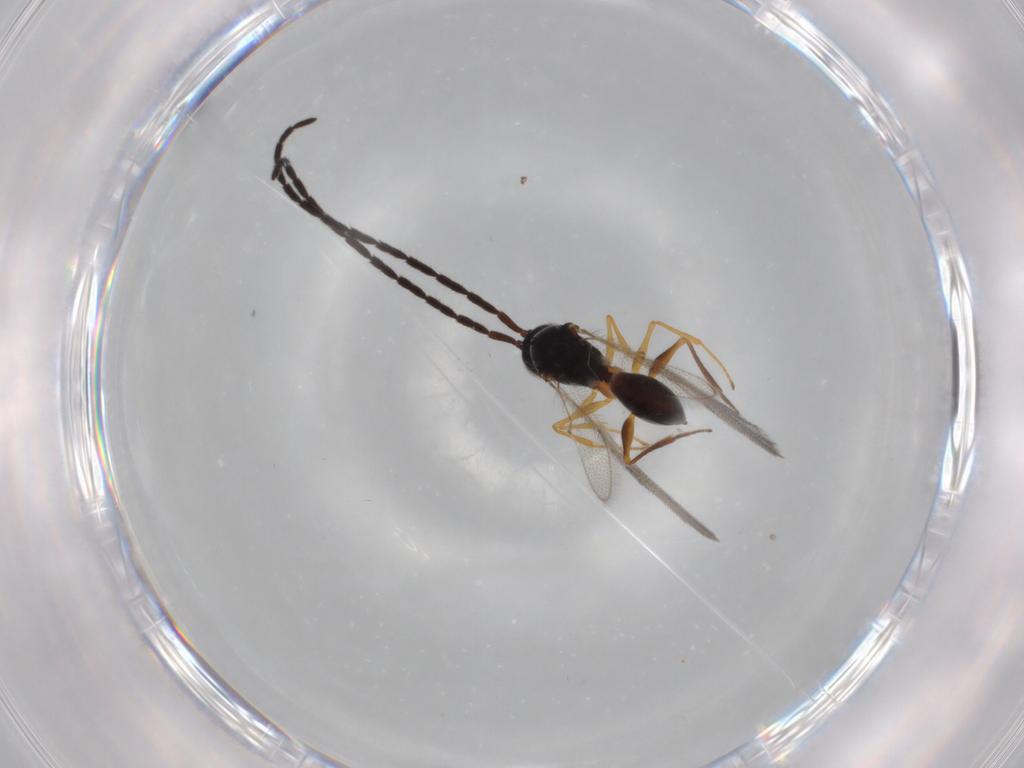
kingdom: Animalia
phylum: Arthropoda
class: Insecta
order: Hymenoptera
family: Figitidae
